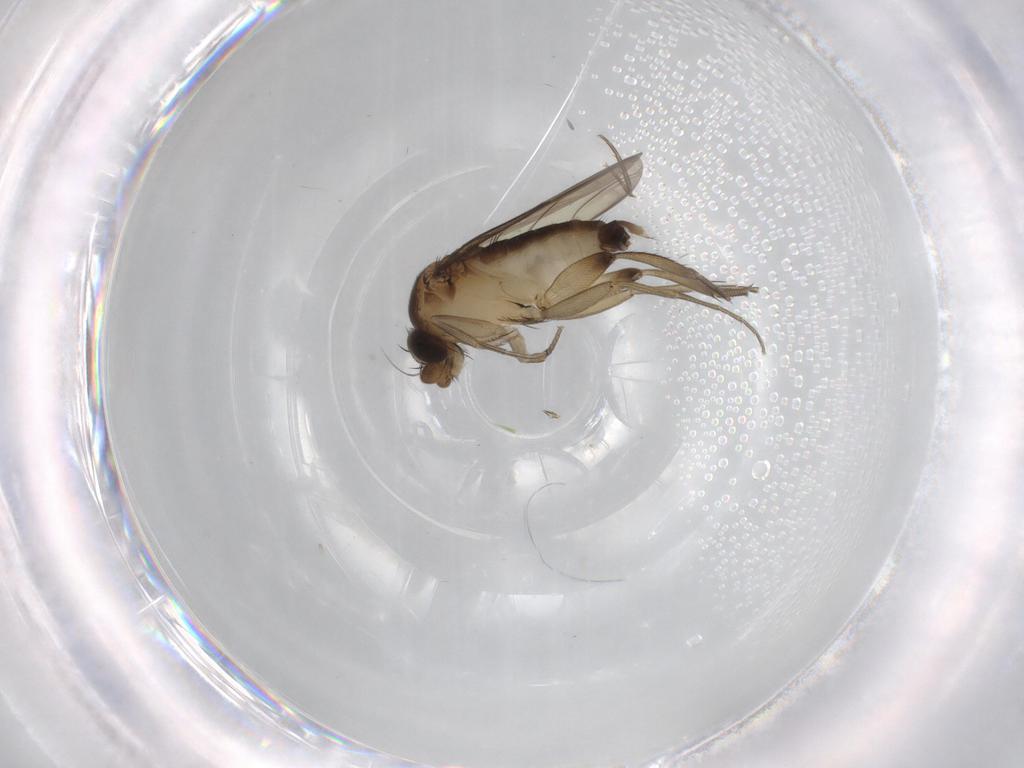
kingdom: Animalia
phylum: Arthropoda
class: Insecta
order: Diptera
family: Phoridae
